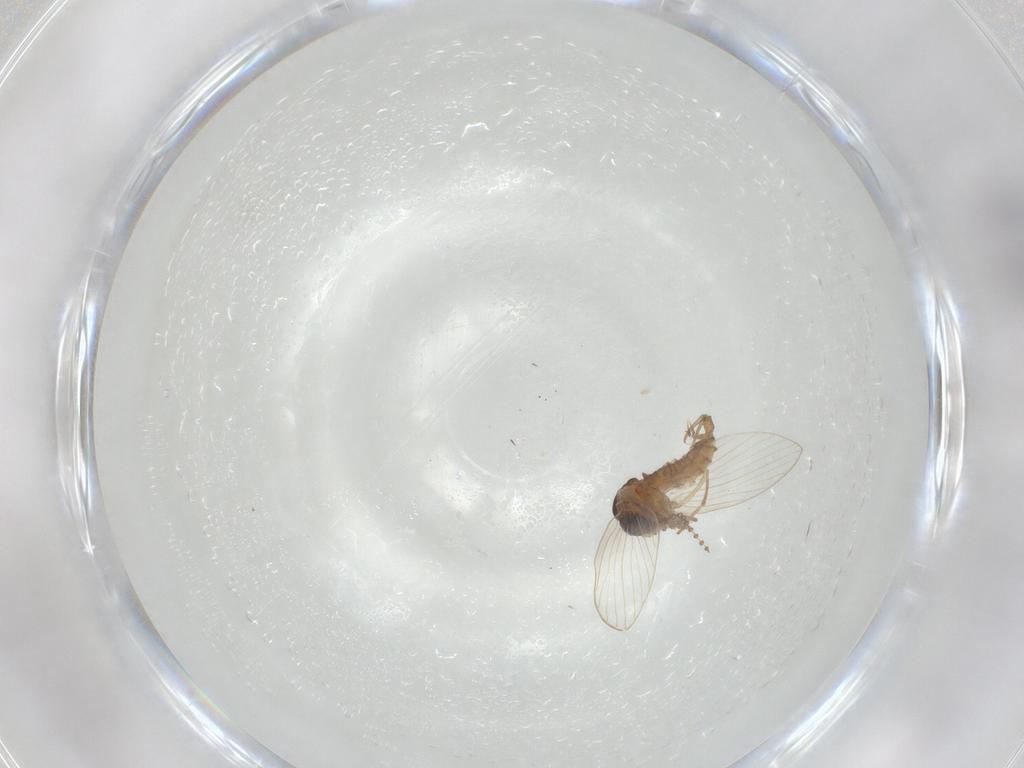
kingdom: Animalia
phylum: Arthropoda
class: Insecta
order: Diptera
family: Psychodidae
